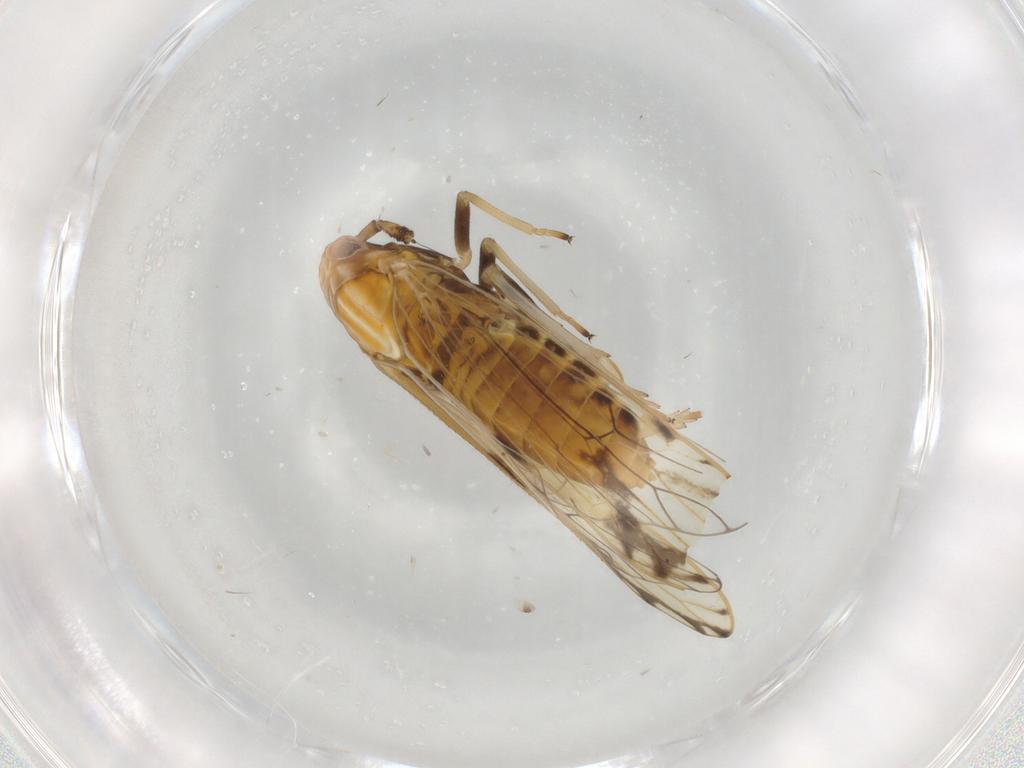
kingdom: Animalia
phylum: Arthropoda
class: Insecta
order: Hemiptera
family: Delphacidae
